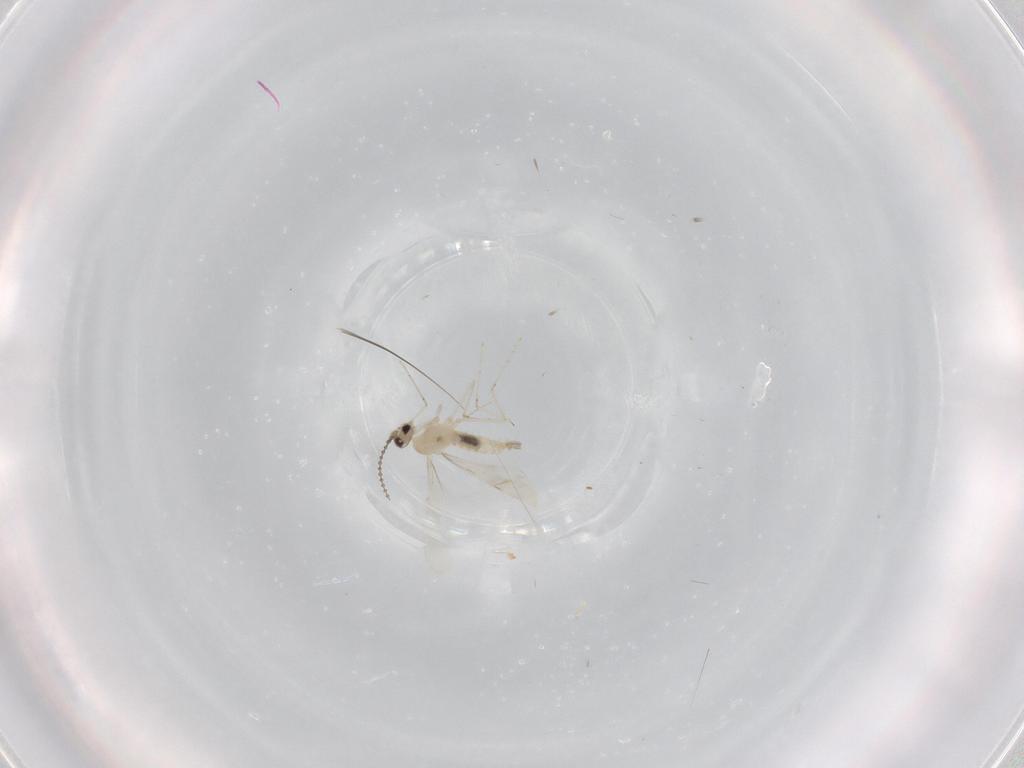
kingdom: Animalia
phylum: Arthropoda
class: Insecta
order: Diptera
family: Cecidomyiidae
